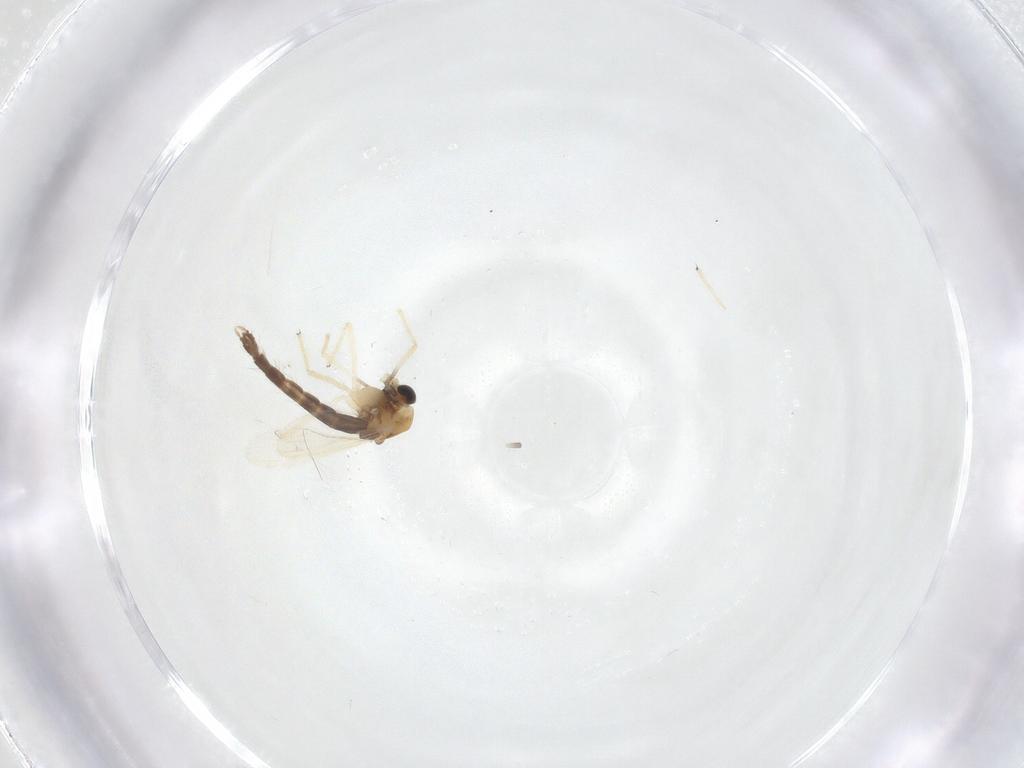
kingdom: Animalia
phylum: Arthropoda
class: Insecta
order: Diptera
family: Chironomidae
